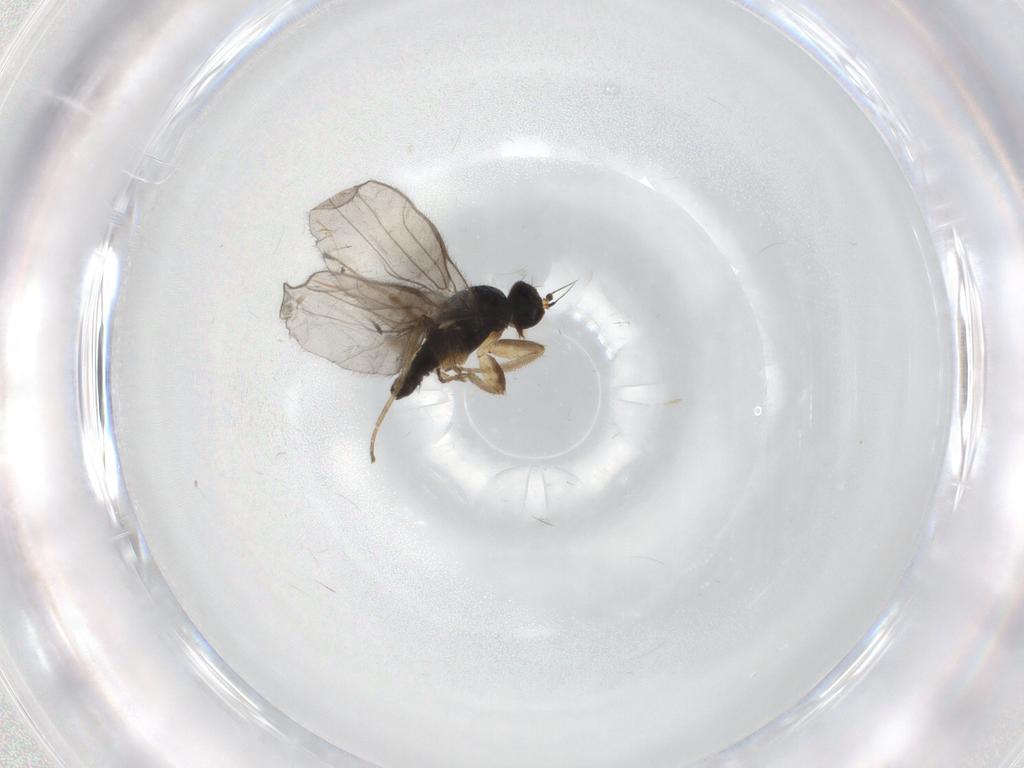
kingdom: Animalia
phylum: Arthropoda
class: Insecta
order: Diptera
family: Hybotidae
